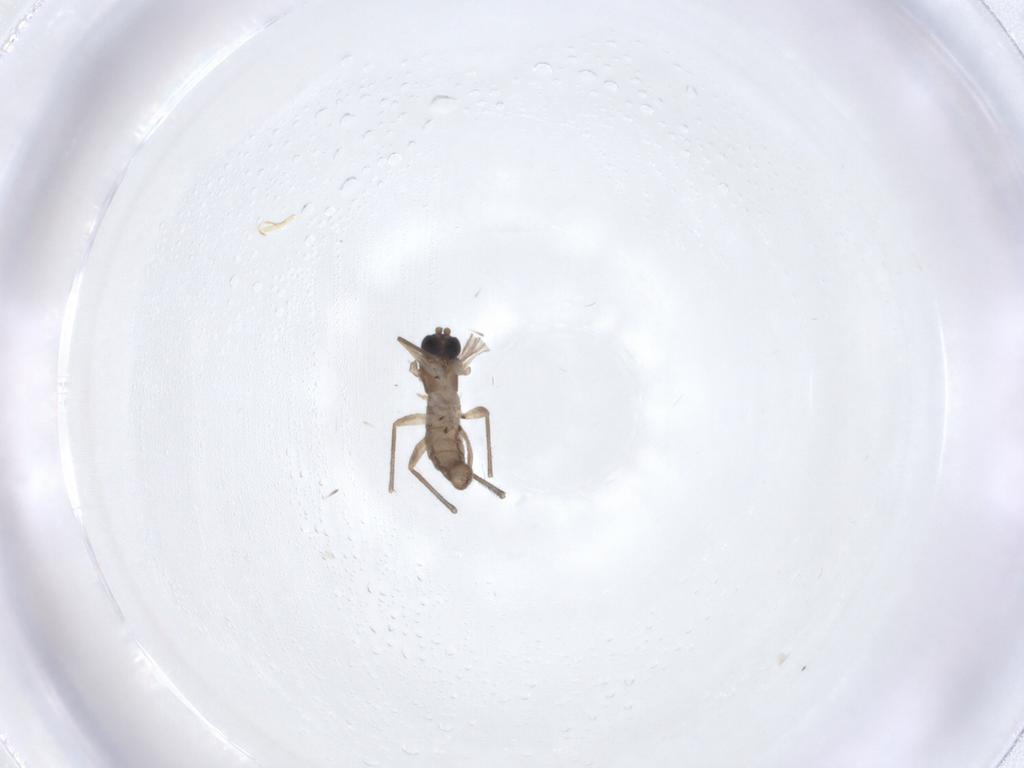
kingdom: Animalia
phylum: Arthropoda
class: Insecta
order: Diptera
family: Sciaridae
